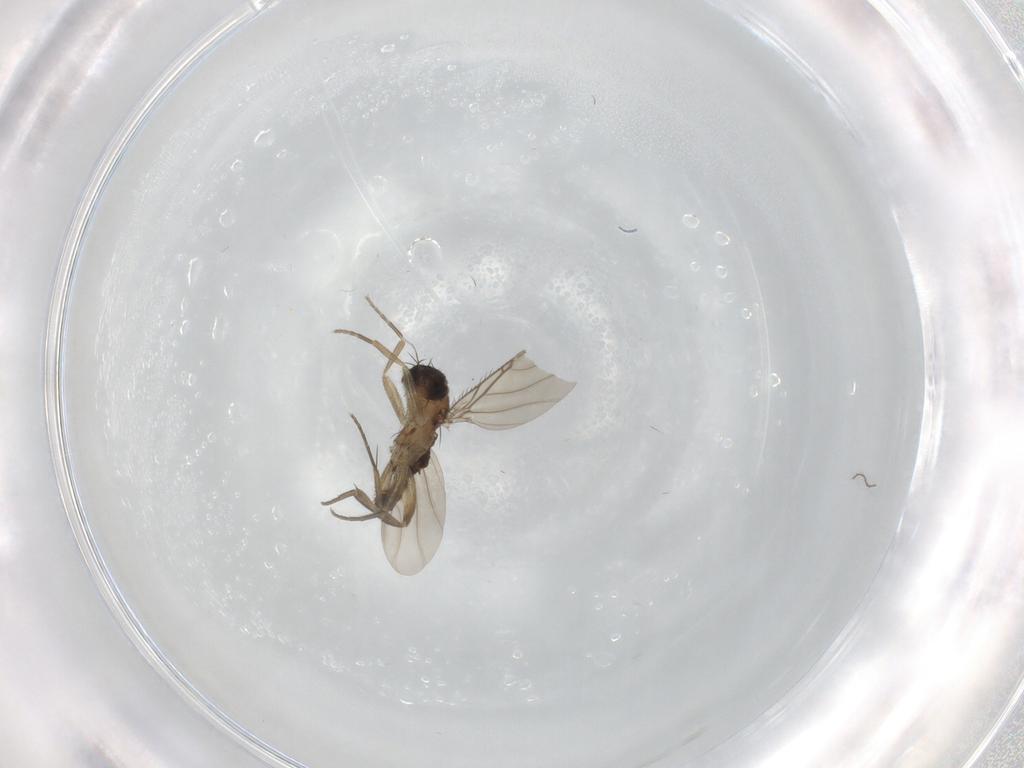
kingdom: Animalia
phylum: Arthropoda
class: Insecta
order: Diptera
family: Phoridae
